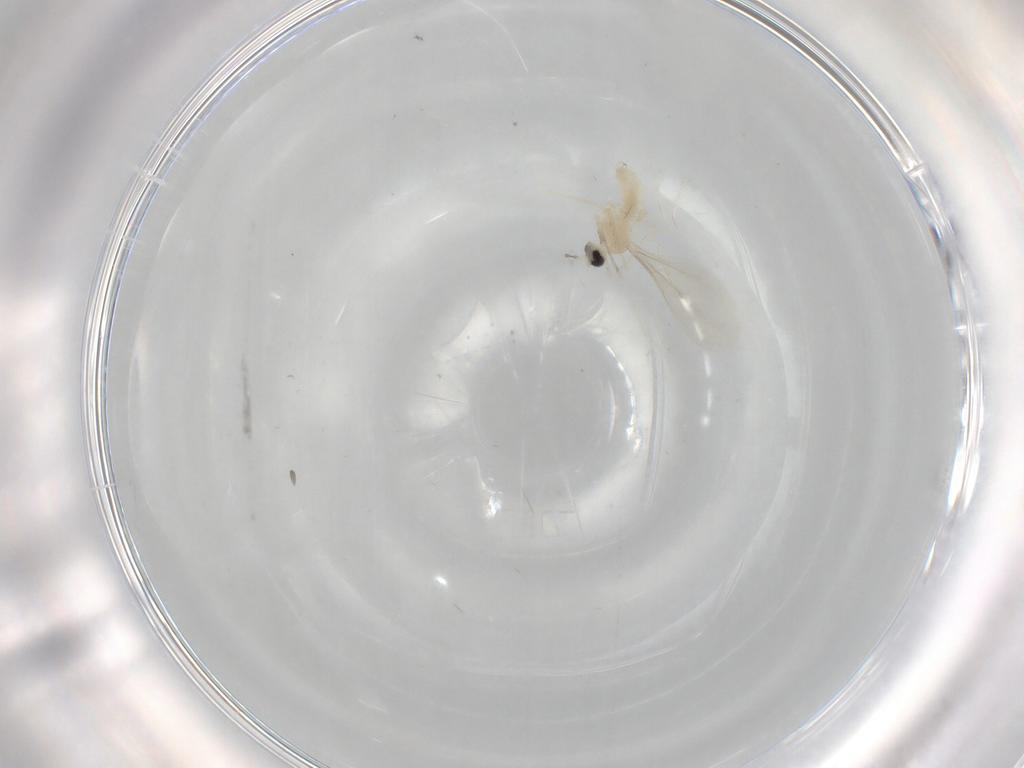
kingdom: Animalia
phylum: Arthropoda
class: Insecta
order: Diptera
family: Cecidomyiidae
